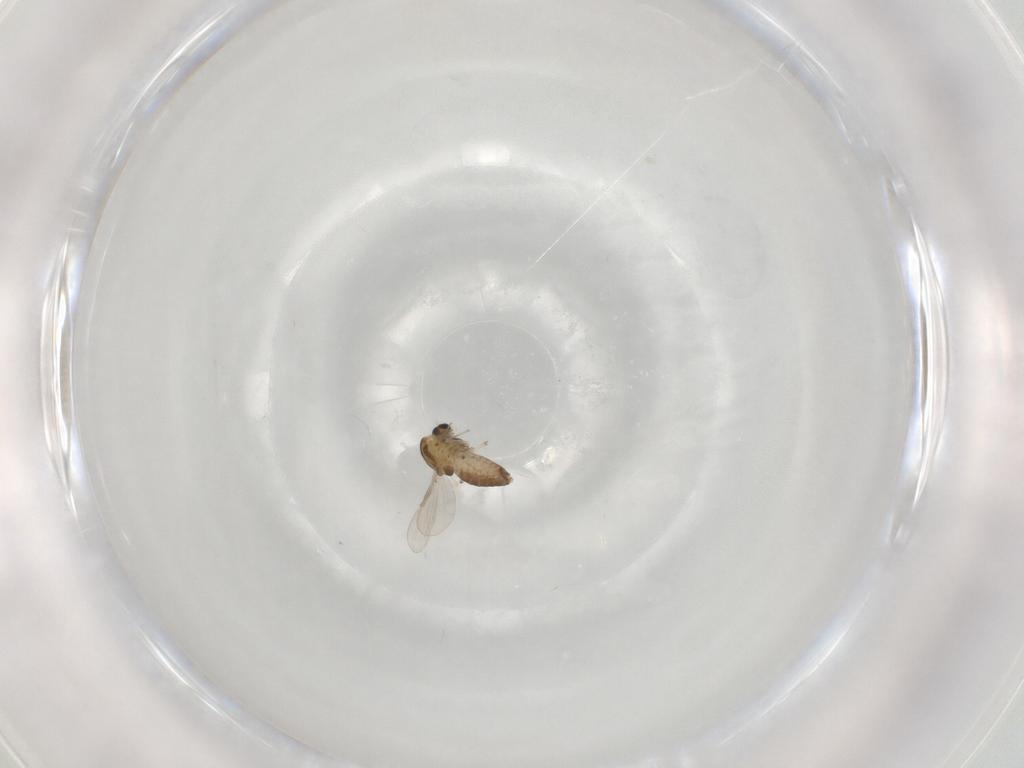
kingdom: Animalia
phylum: Arthropoda
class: Insecta
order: Diptera
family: Chironomidae
